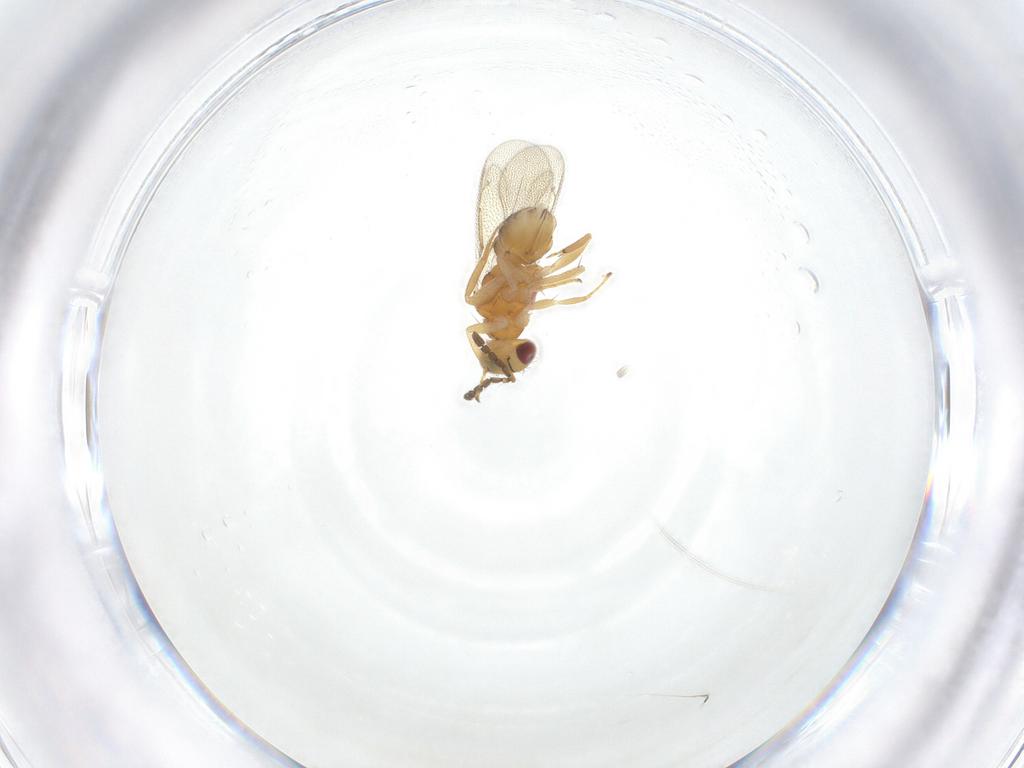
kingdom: Animalia
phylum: Arthropoda
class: Insecta
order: Hymenoptera
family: Eulophidae
